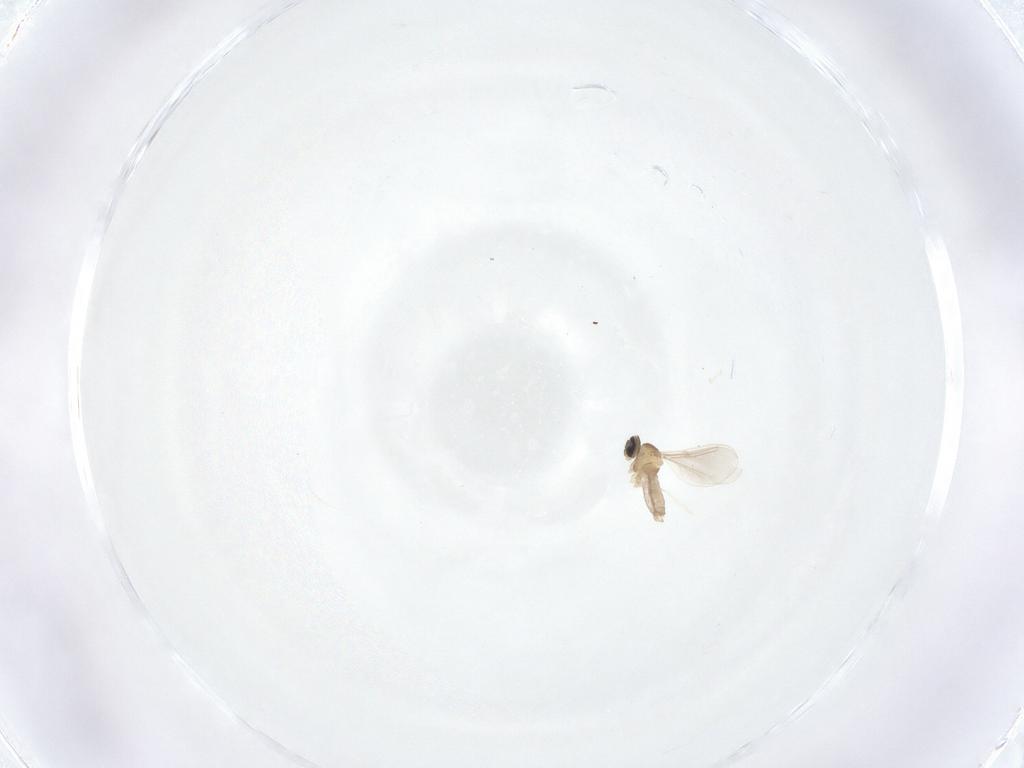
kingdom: Animalia
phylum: Arthropoda
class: Insecta
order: Diptera
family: Cecidomyiidae
